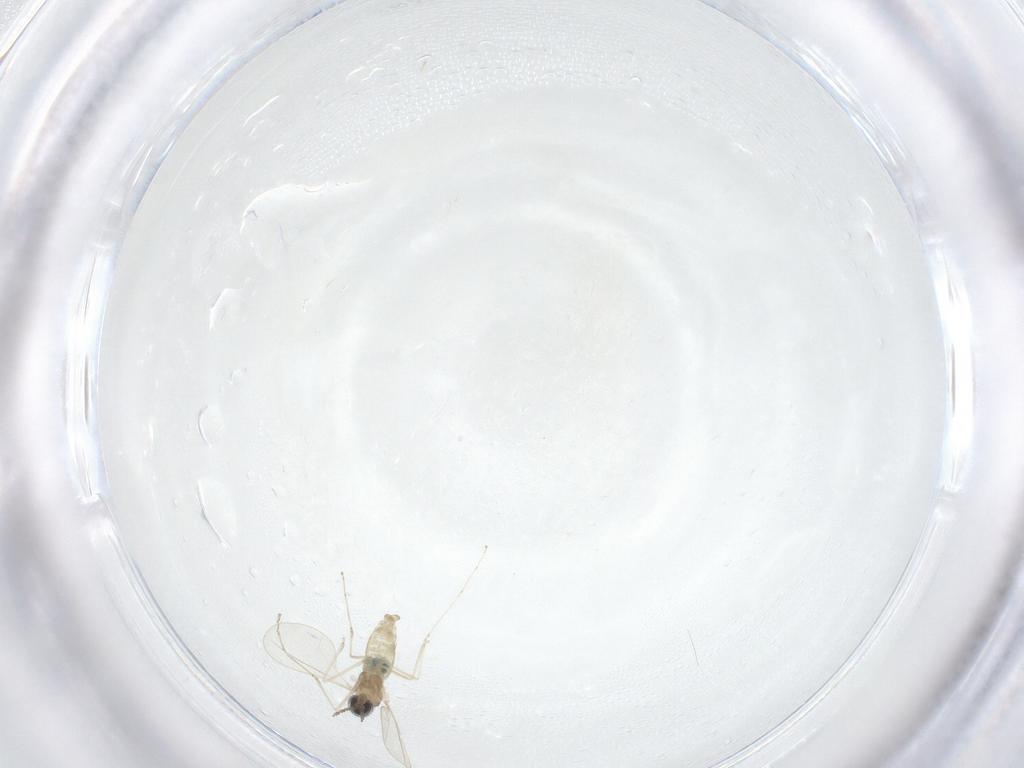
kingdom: Animalia
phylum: Arthropoda
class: Insecta
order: Diptera
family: Cecidomyiidae
